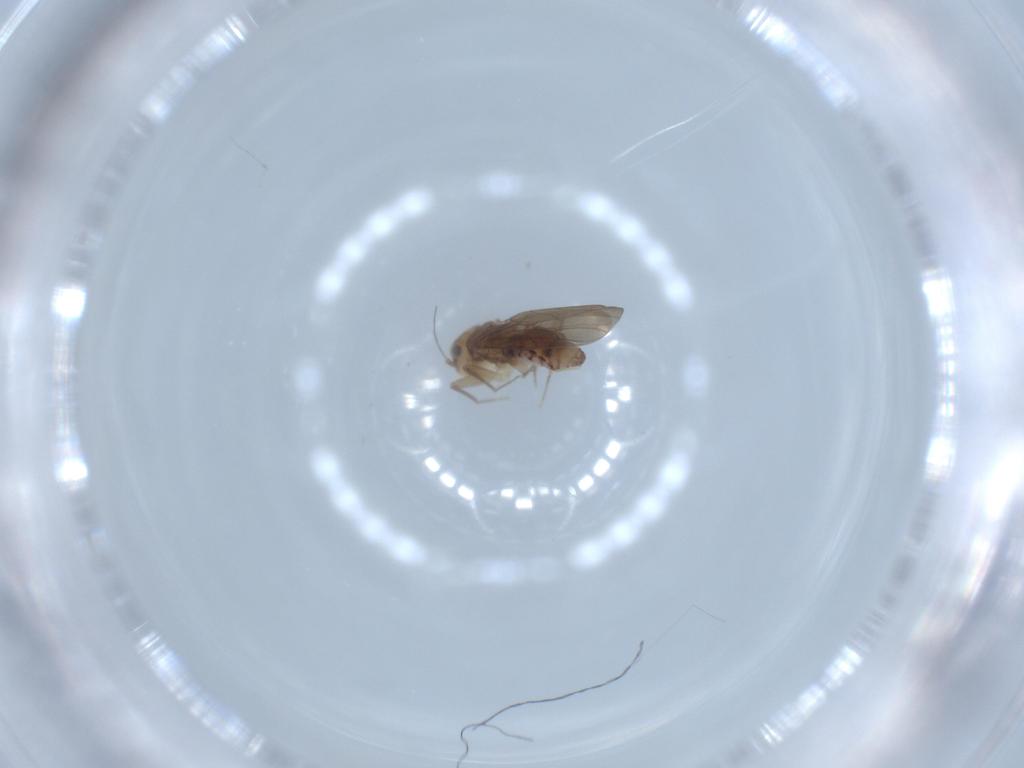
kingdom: Animalia
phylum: Arthropoda
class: Insecta
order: Psocodea
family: Lepidopsocidae
